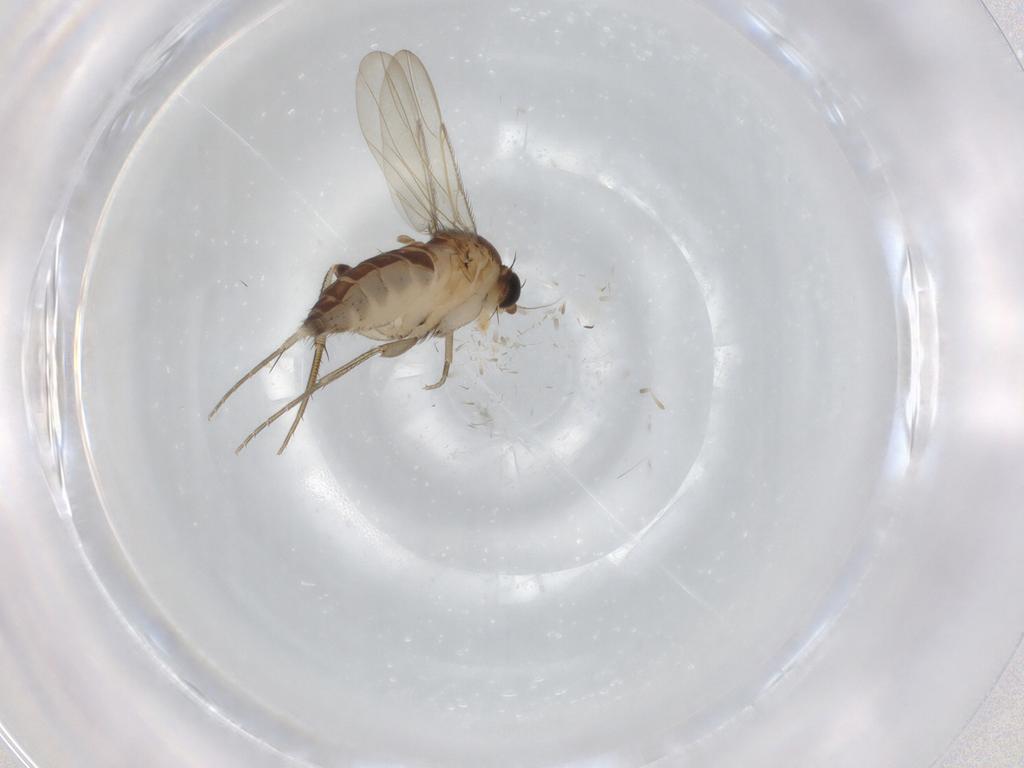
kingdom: Animalia
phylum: Arthropoda
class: Insecta
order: Diptera
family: Phoridae
